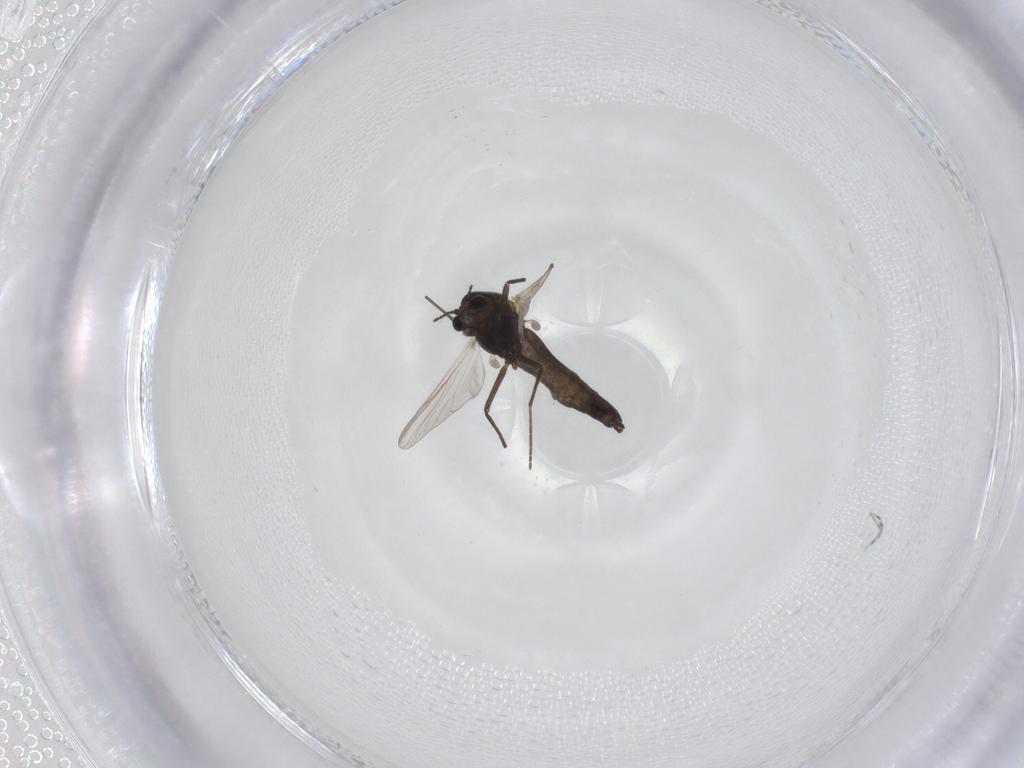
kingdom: Animalia
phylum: Arthropoda
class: Insecta
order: Diptera
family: Chironomidae
